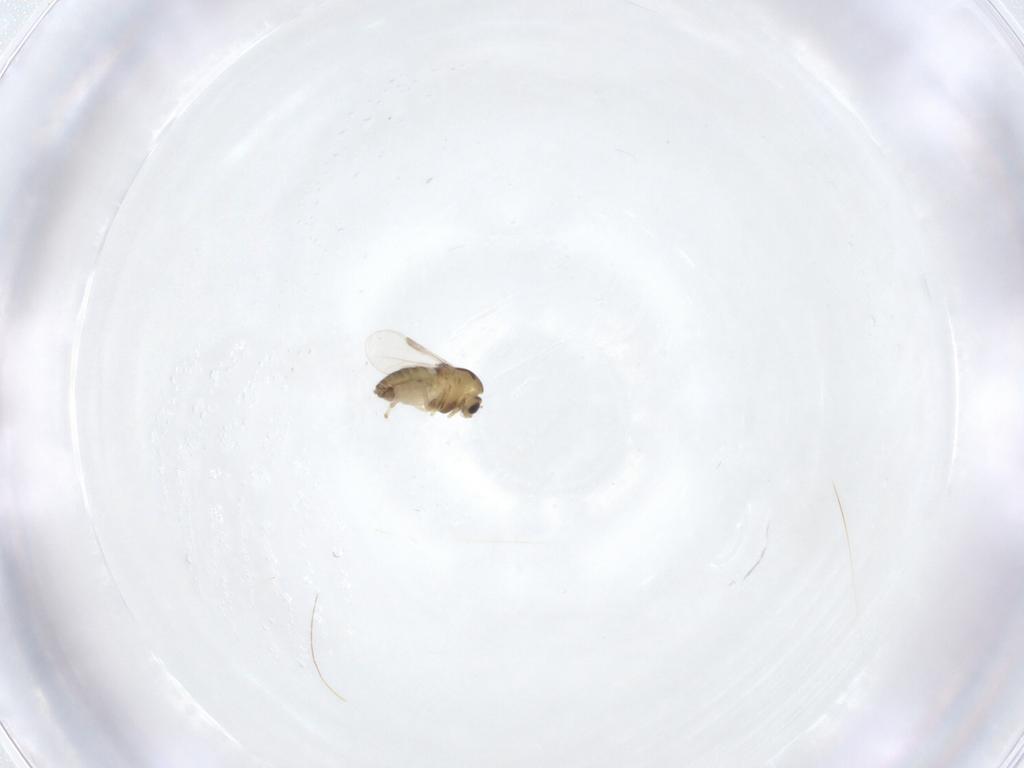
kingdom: Animalia
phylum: Arthropoda
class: Insecta
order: Diptera
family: Chironomidae
